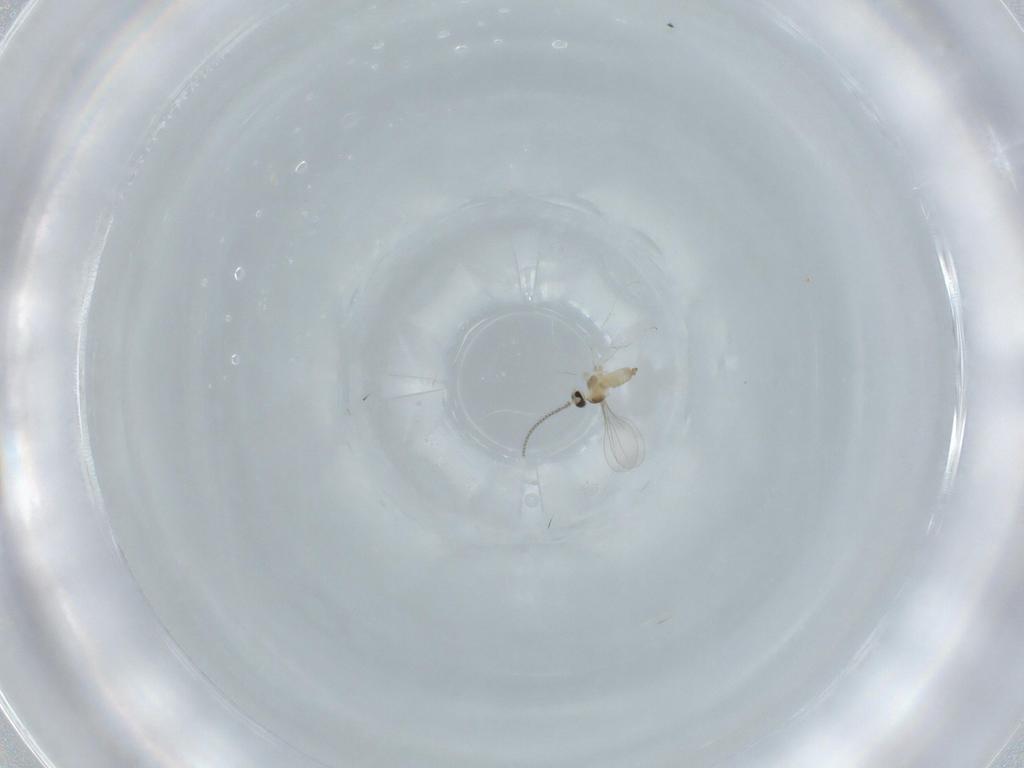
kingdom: Animalia
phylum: Arthropoda
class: Insecta
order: Diptera
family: Cecidomyiidae
